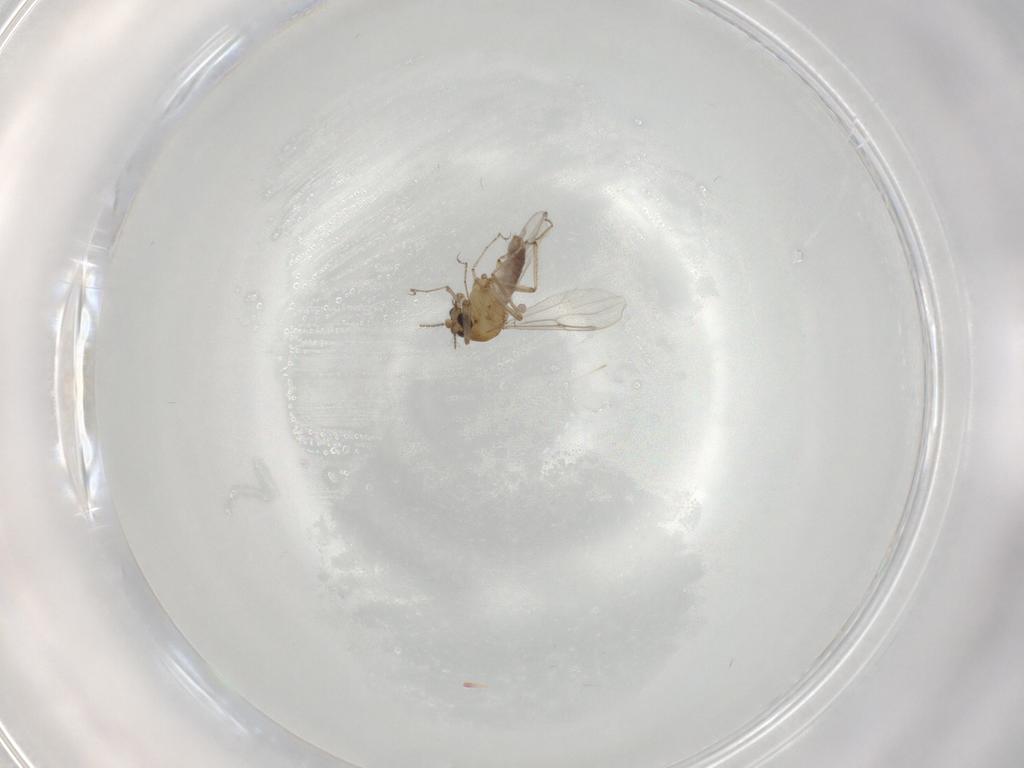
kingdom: Animalia
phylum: Arthropoda
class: Insecta
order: Diptera
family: Ceratopogonidae
